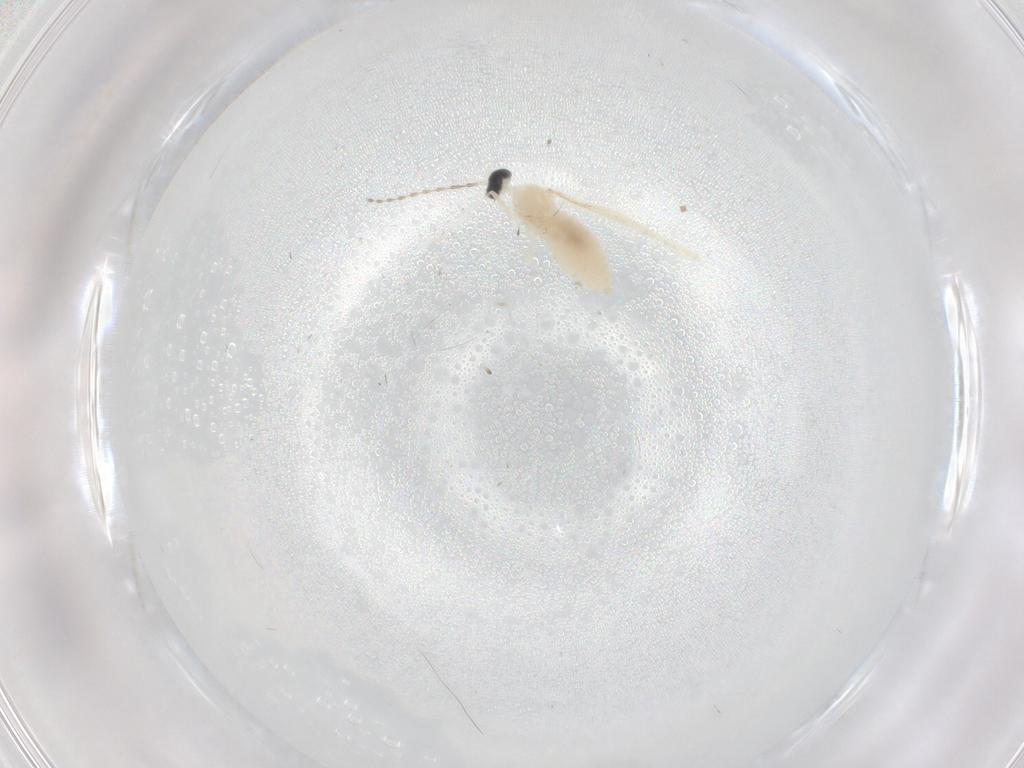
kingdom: Animalia
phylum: Arthropoda
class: Insecta
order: Diptera
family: Cecidomyiidae
